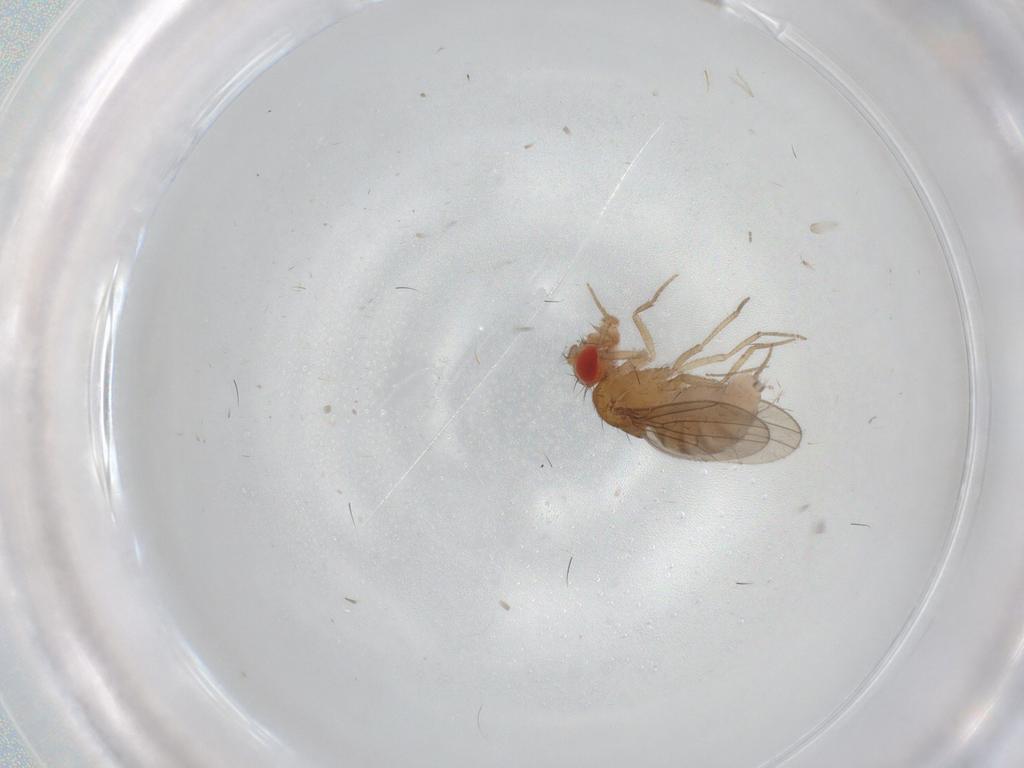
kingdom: Animalia
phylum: Arthropoda
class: Insecta
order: Diptera
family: Drosophilidae
